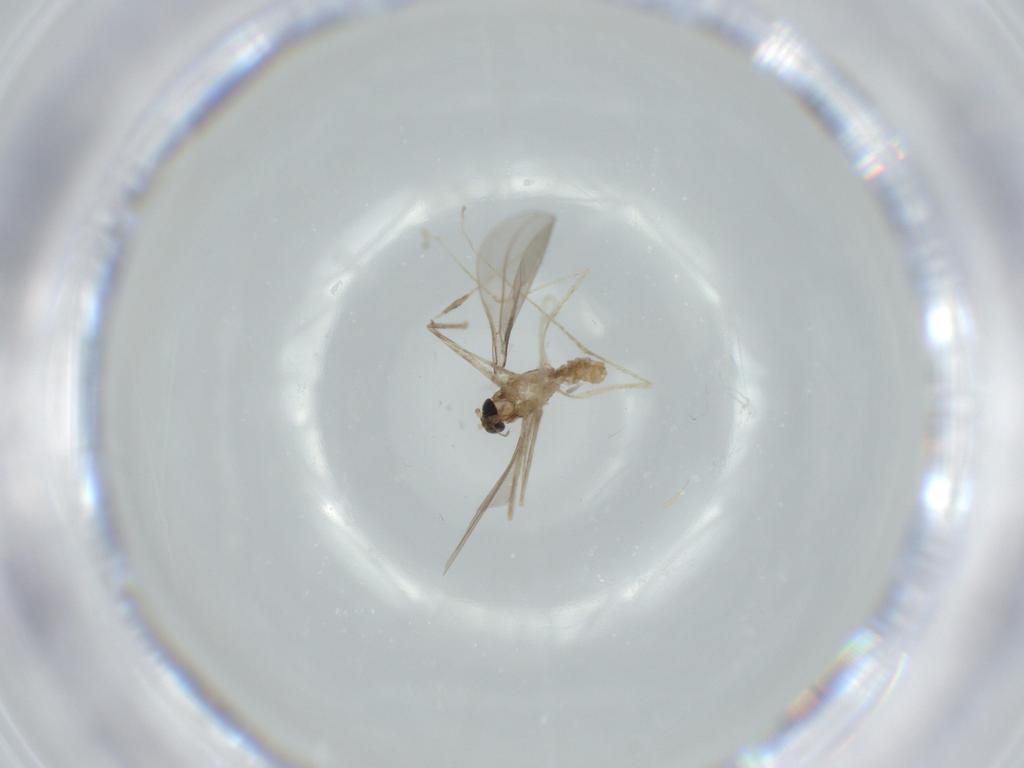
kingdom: Animalia
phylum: Arthropoda
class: Insecta
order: Diptera
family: Cecidomyiidae
